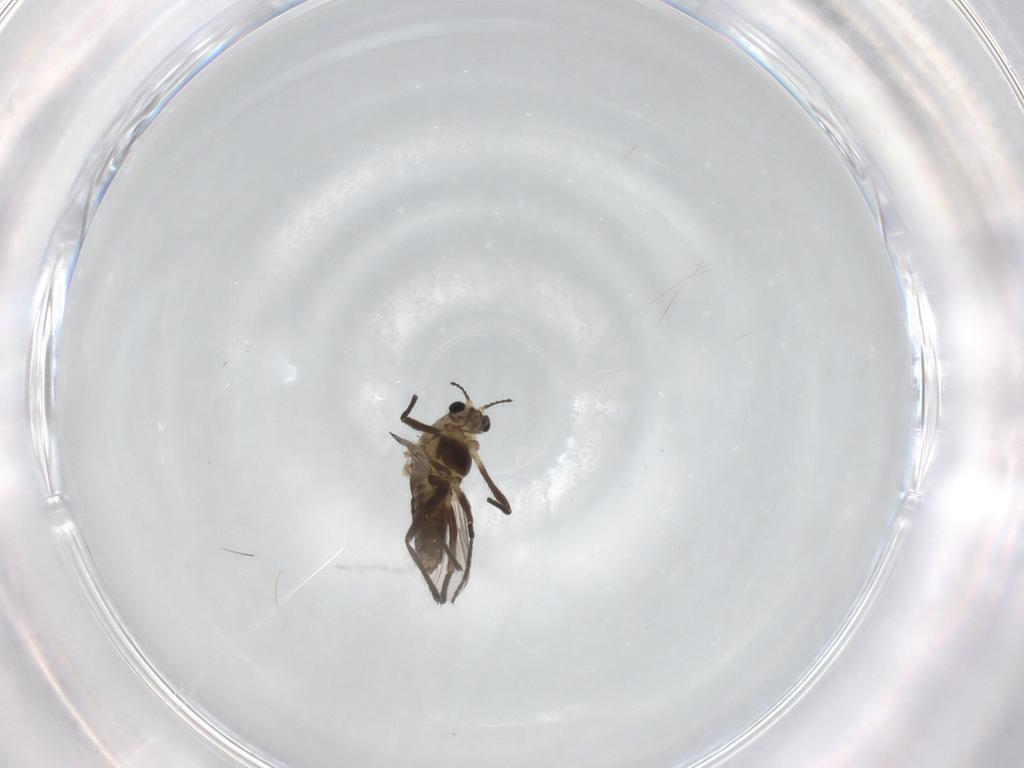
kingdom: Animalia
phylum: Arthropoda
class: Insecta
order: Diptera
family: Chironomidae
